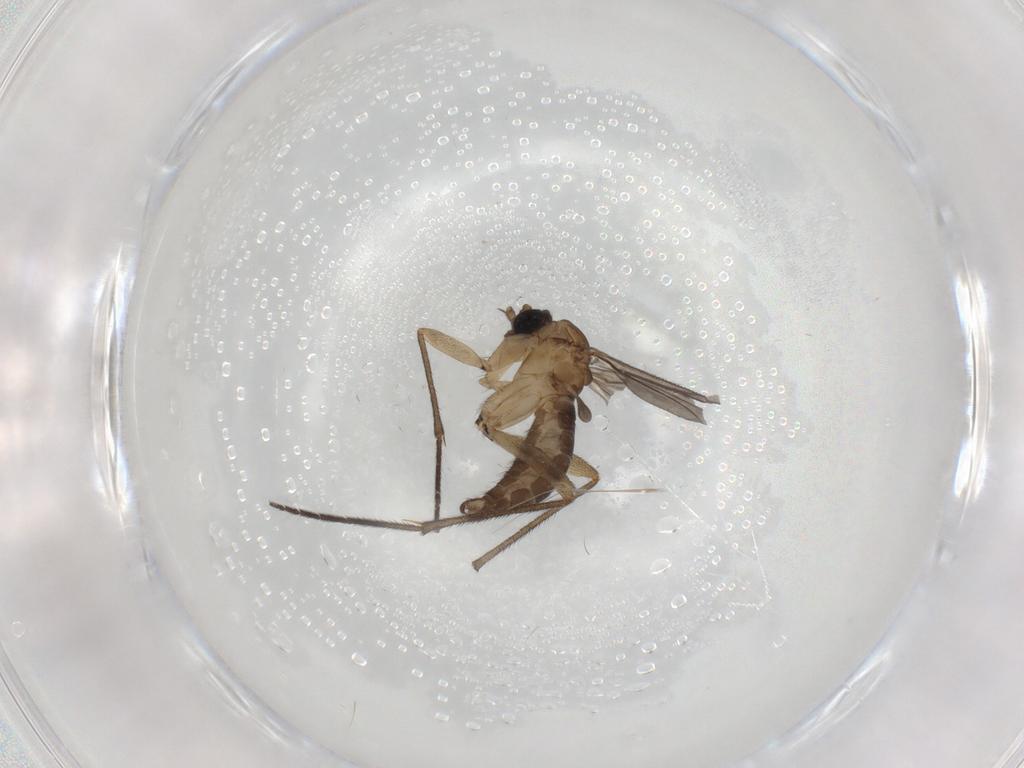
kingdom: Animalia
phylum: Arthropoda
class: Insecta
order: Diptera
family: Sciaridae
